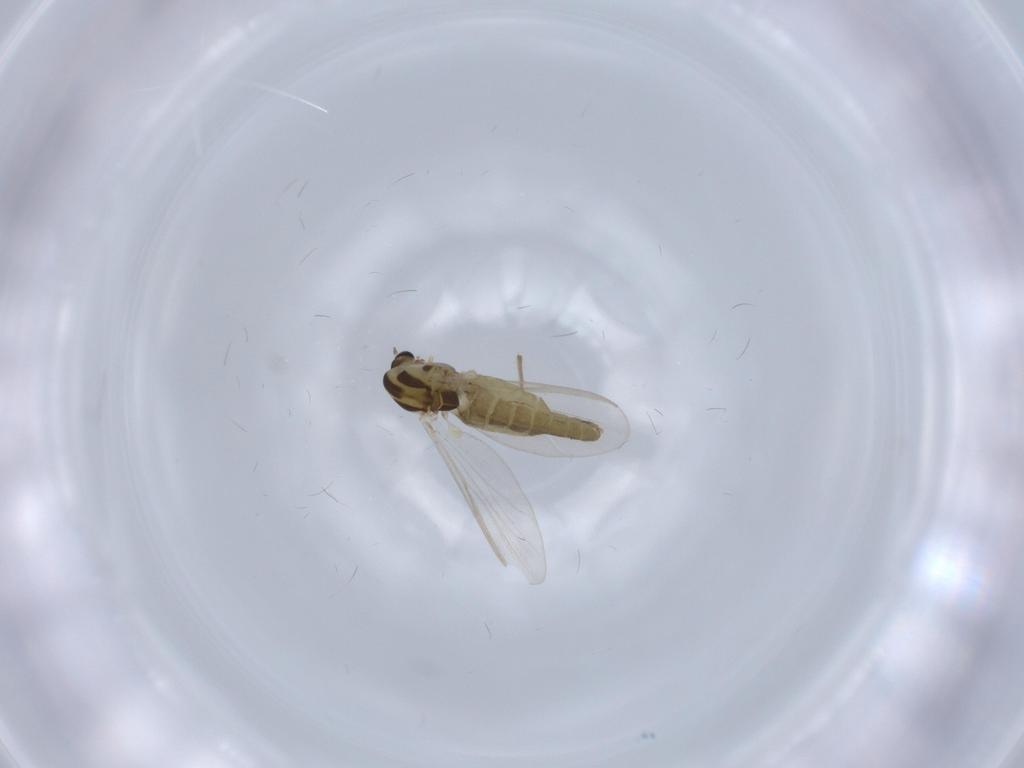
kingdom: Animalia
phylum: Arthropoda
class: Insecta
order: Diptera
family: Chironomidae
